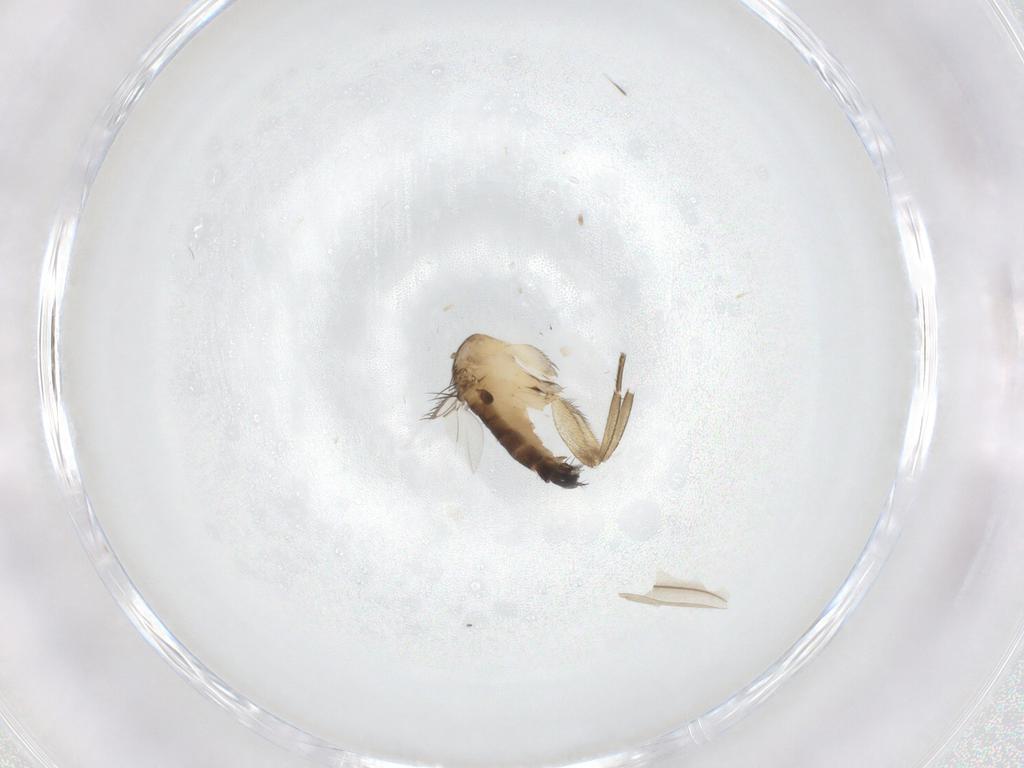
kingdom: Animalia
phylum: Arthropoda
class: Insecta
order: Diptera
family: Phoridae
